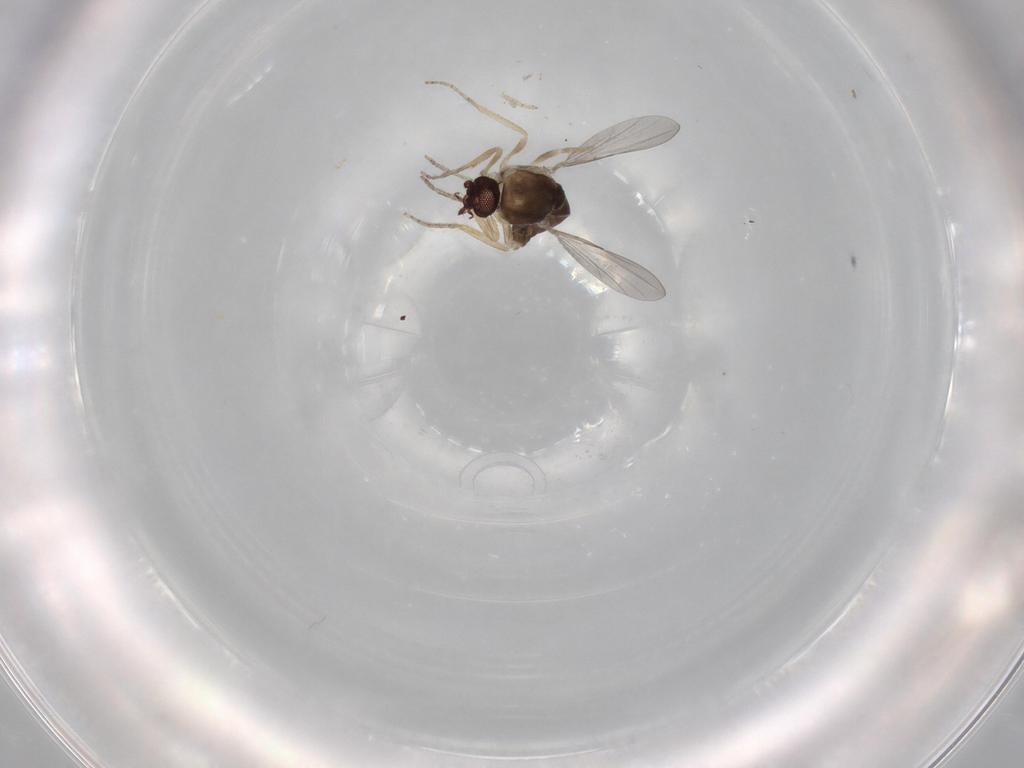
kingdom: Animalia
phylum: Arthropoda
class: Insecta
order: Diptera
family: Ceratopogonidae
